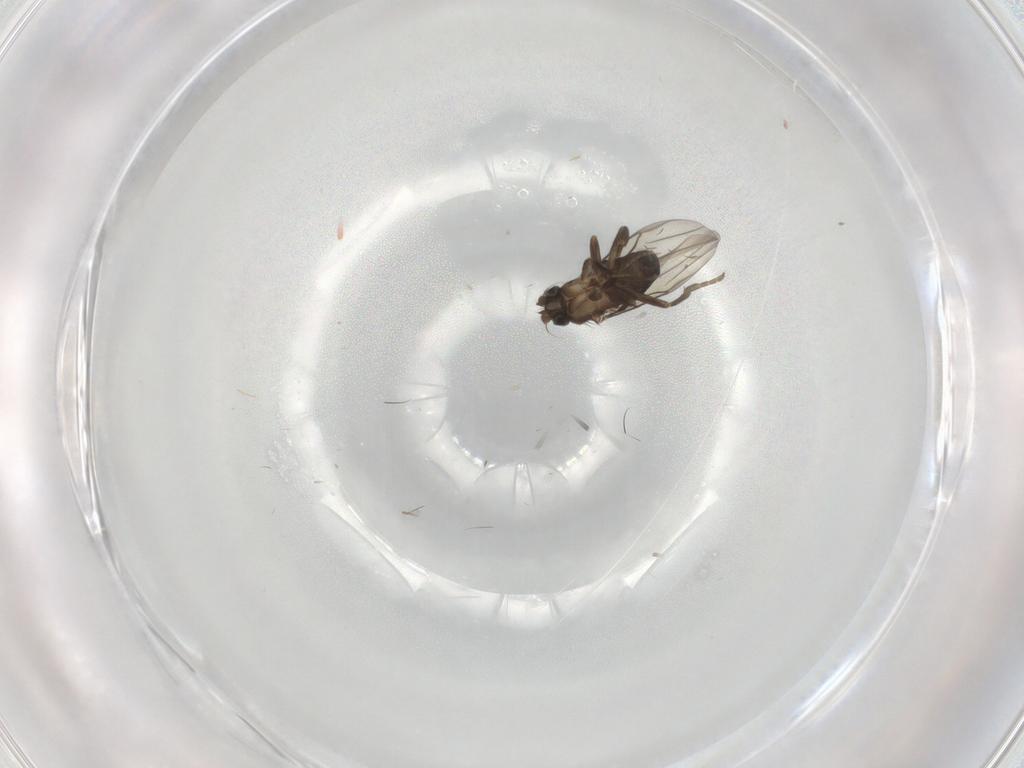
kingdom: Animalia
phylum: Arthropoda
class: Insecta
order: Diptera
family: Phoridae
